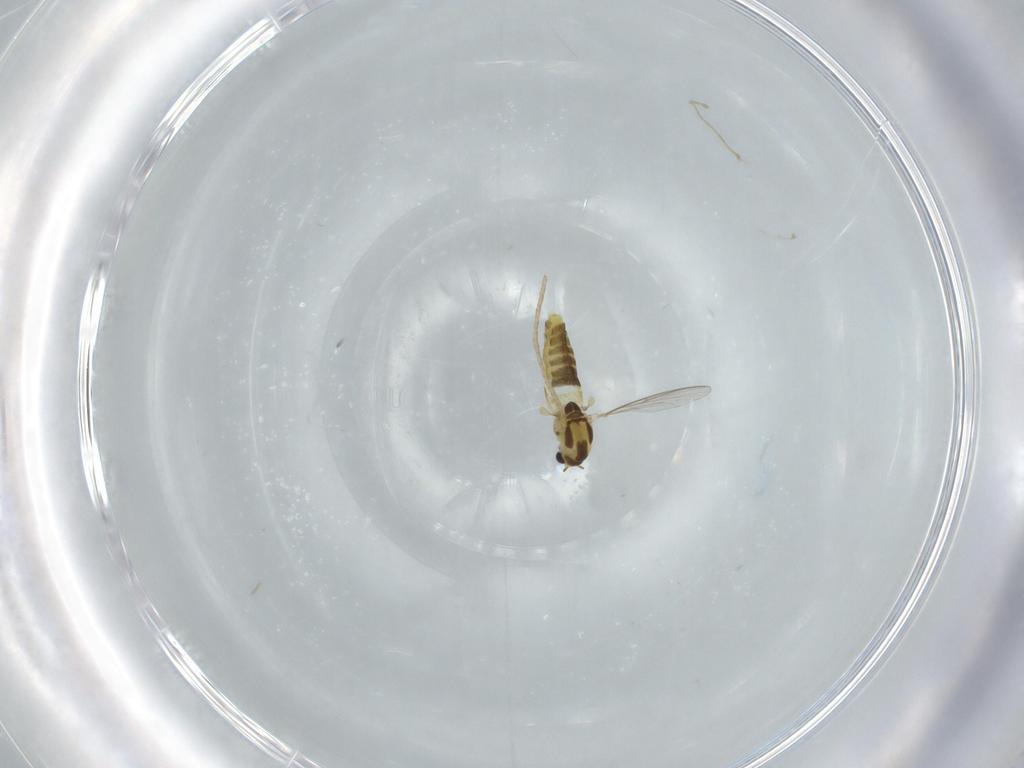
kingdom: Animalia
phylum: Arthropoda
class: Insecta
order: Diptera
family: Chironomidae
